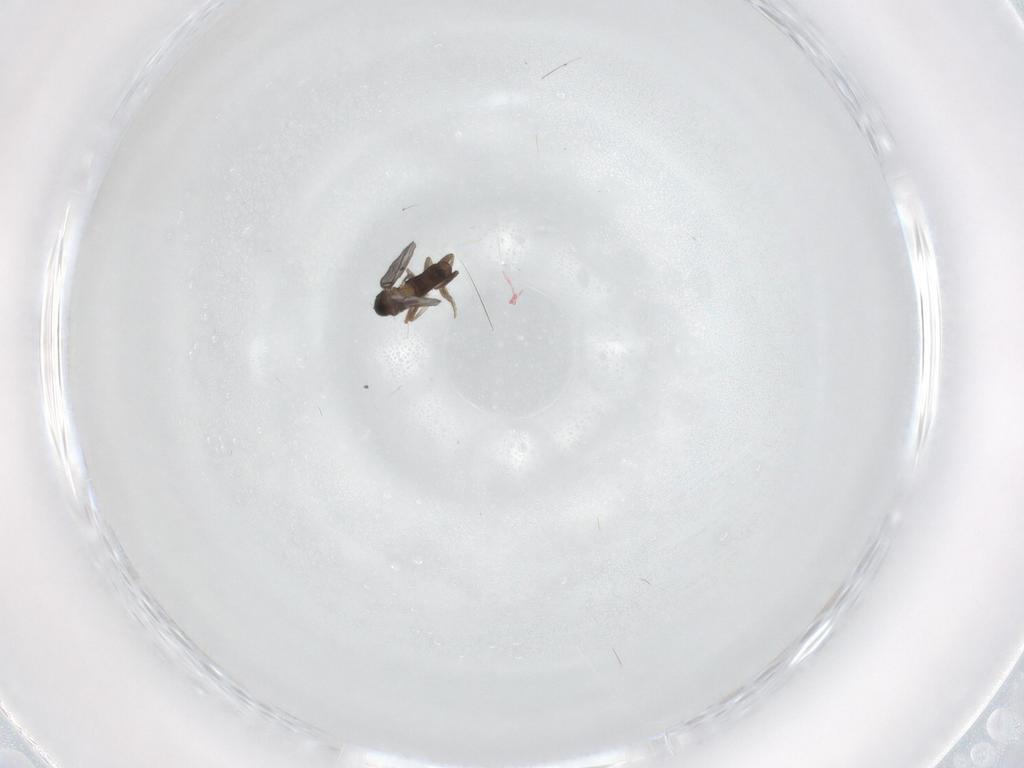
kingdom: Animalia
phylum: Arthropoda
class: Insecta
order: Diptera
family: Phoridae
